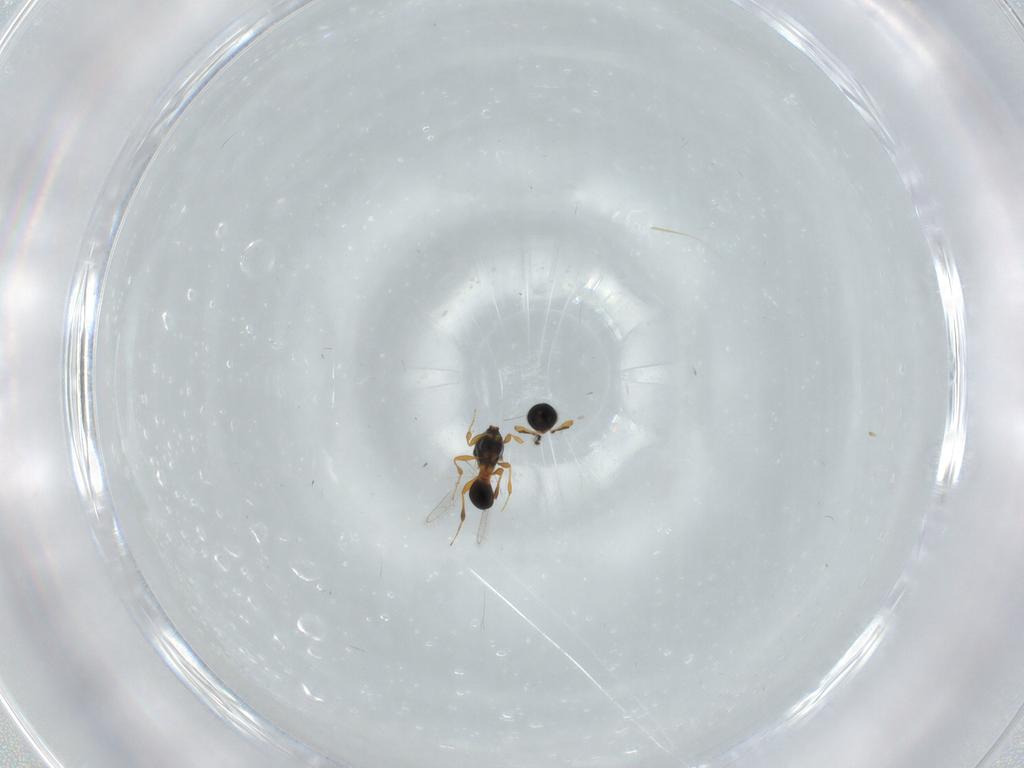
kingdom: Animalia
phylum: Arthropoda
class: Insecta
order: Hymenoptera
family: Platygastridae
